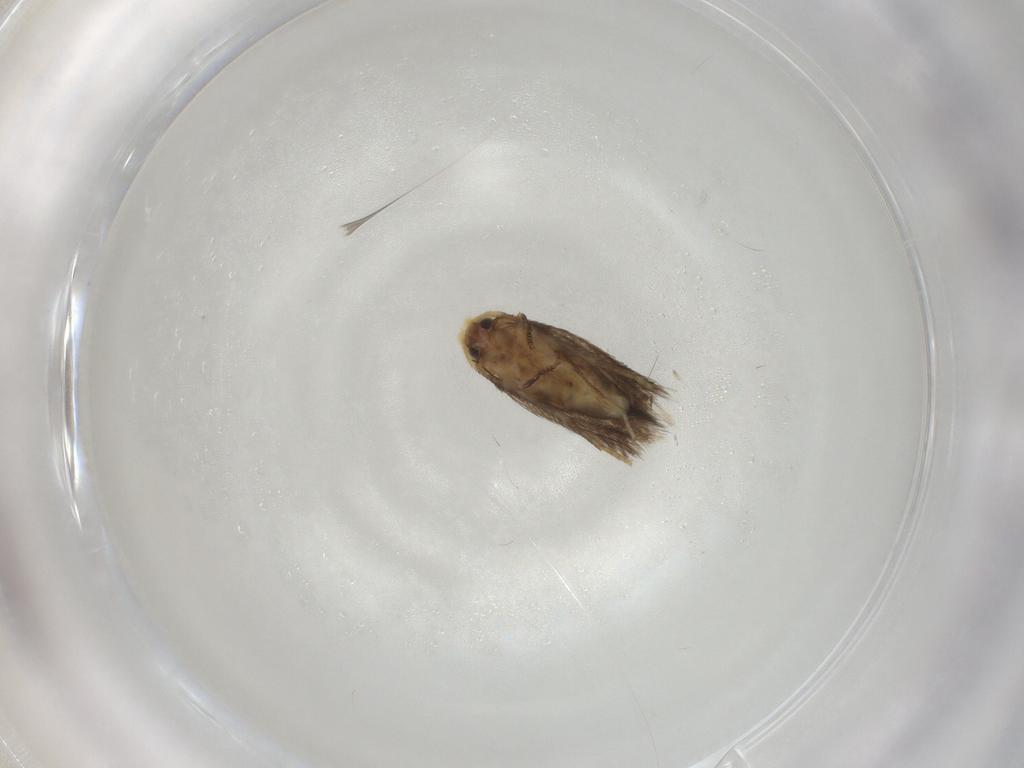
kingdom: Animalia
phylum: Arthropoda
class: Insecta
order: Lepidoptera
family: Nepticulidae
